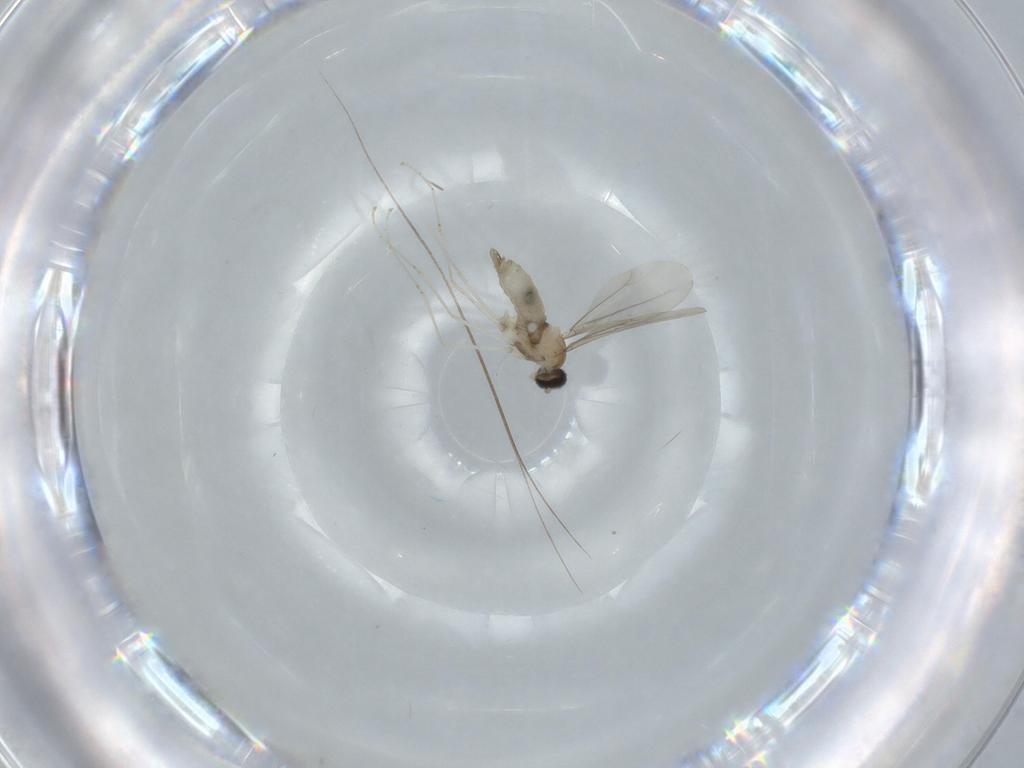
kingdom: Animalia
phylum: Arthropoda
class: Insecta
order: Diptera
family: Cecidomyiidae
